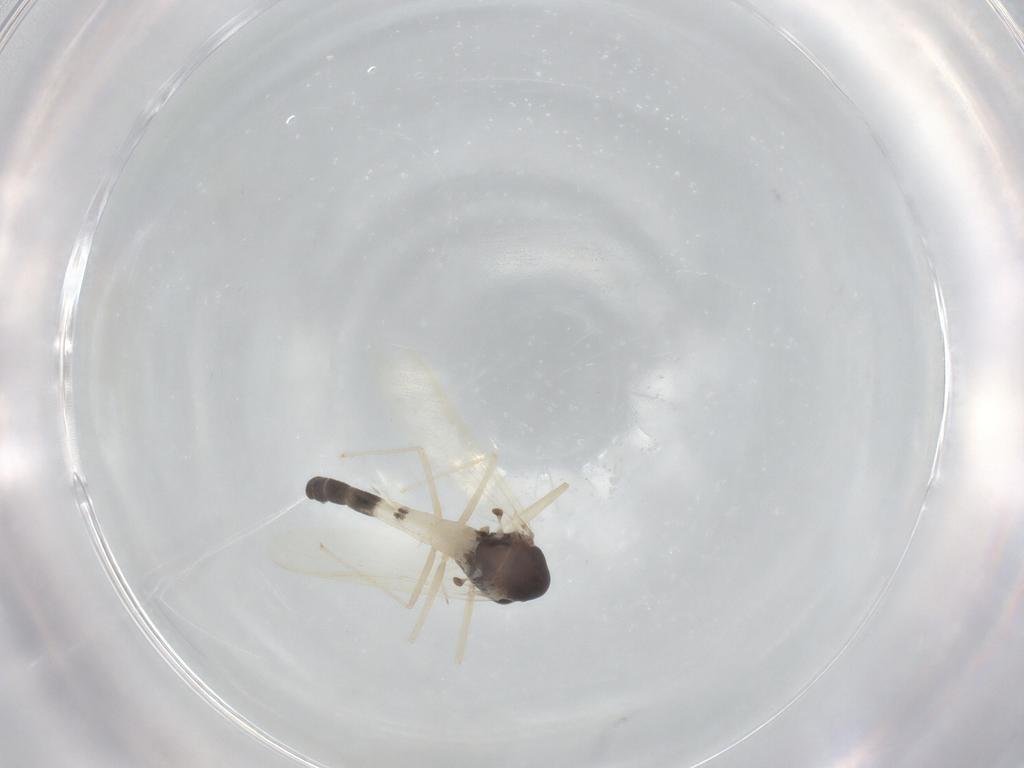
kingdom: Animalia
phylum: Arthropoda
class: Insecta
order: Diptera
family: Chironomidae
